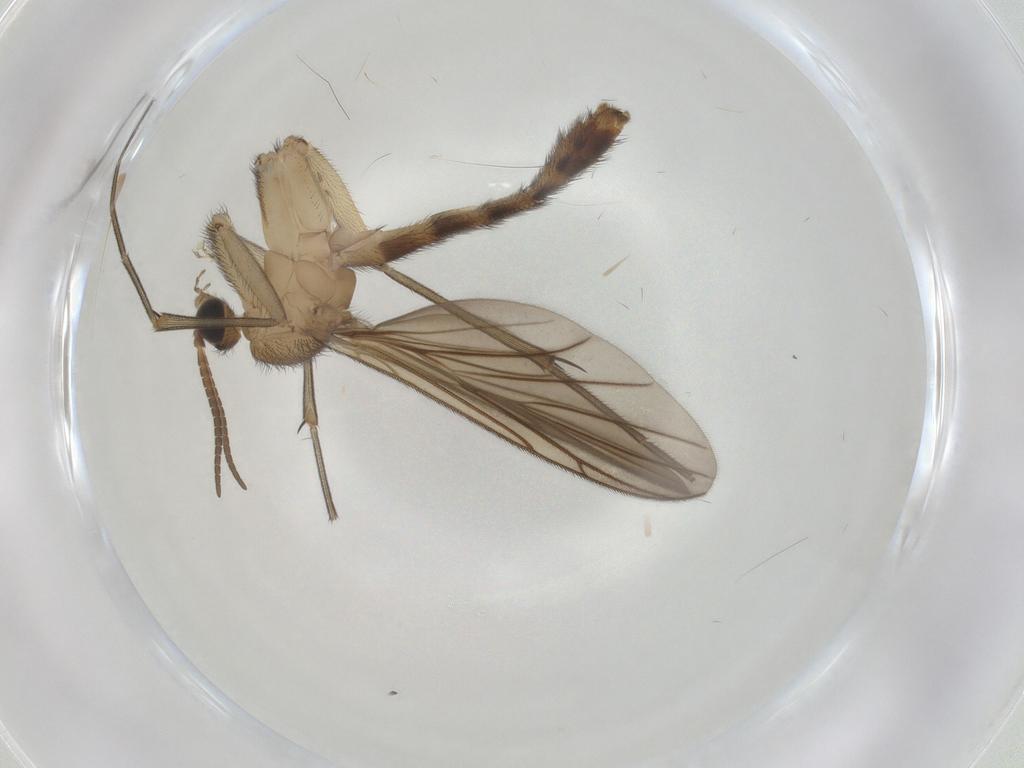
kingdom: Animalia
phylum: Arthropoda
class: Insecta
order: Diptera
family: Keroplatidae
